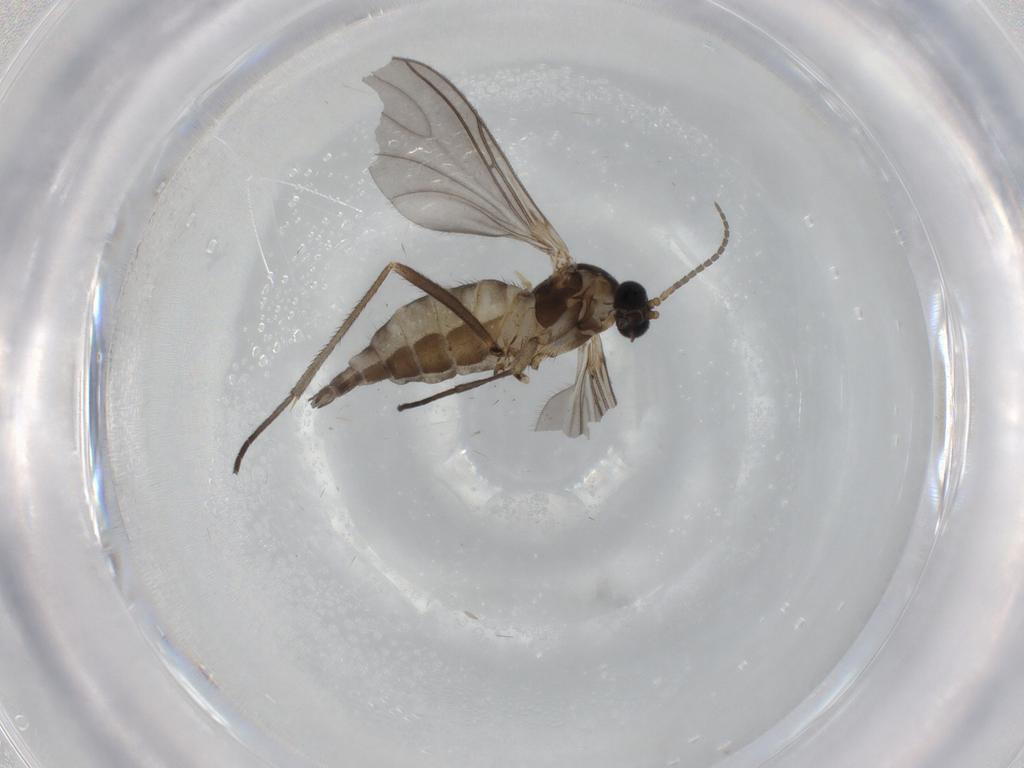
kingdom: Animalia
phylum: Arthropoda
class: Insecta
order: Diptera
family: Sciaridae
